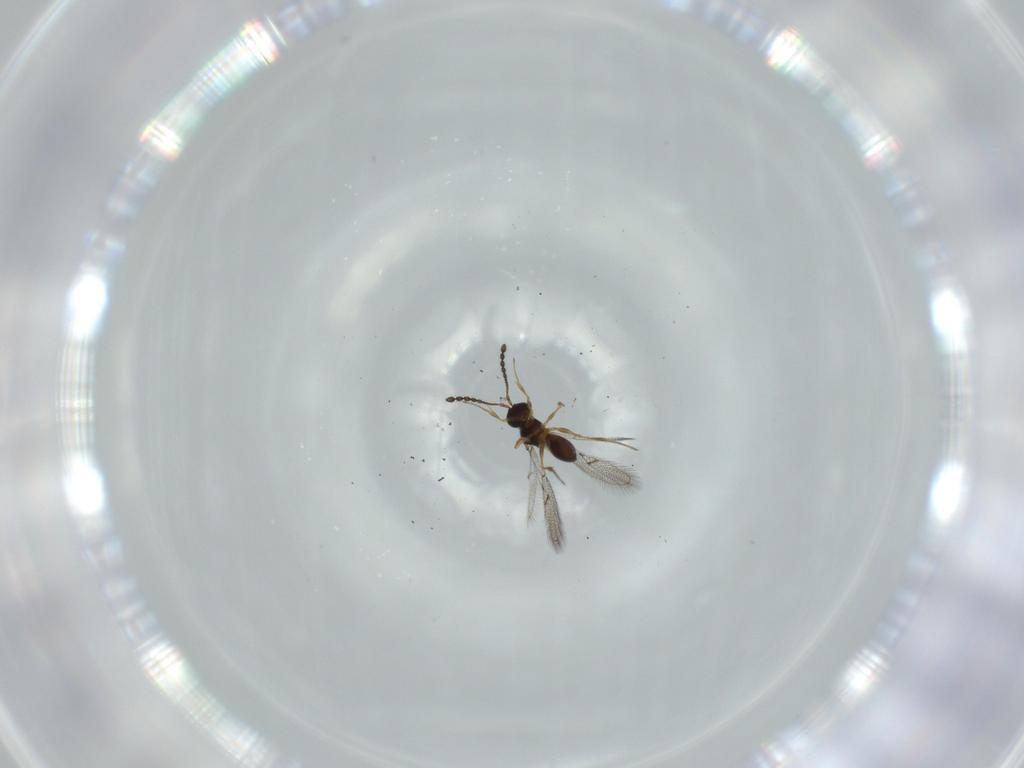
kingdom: Animalia
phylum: Arthropoda
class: Insecta
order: Hymenoptera
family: Figitidae
